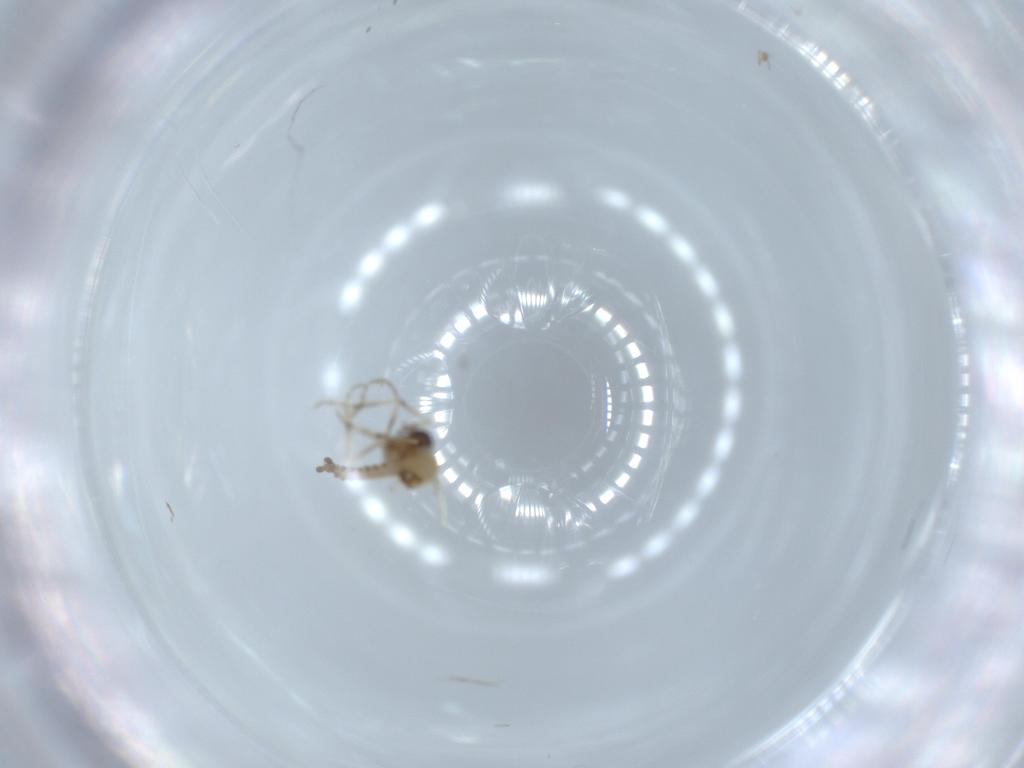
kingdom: Animalia
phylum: Arthropoda
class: Insecta
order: Diptera
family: Ceratopogonidae
